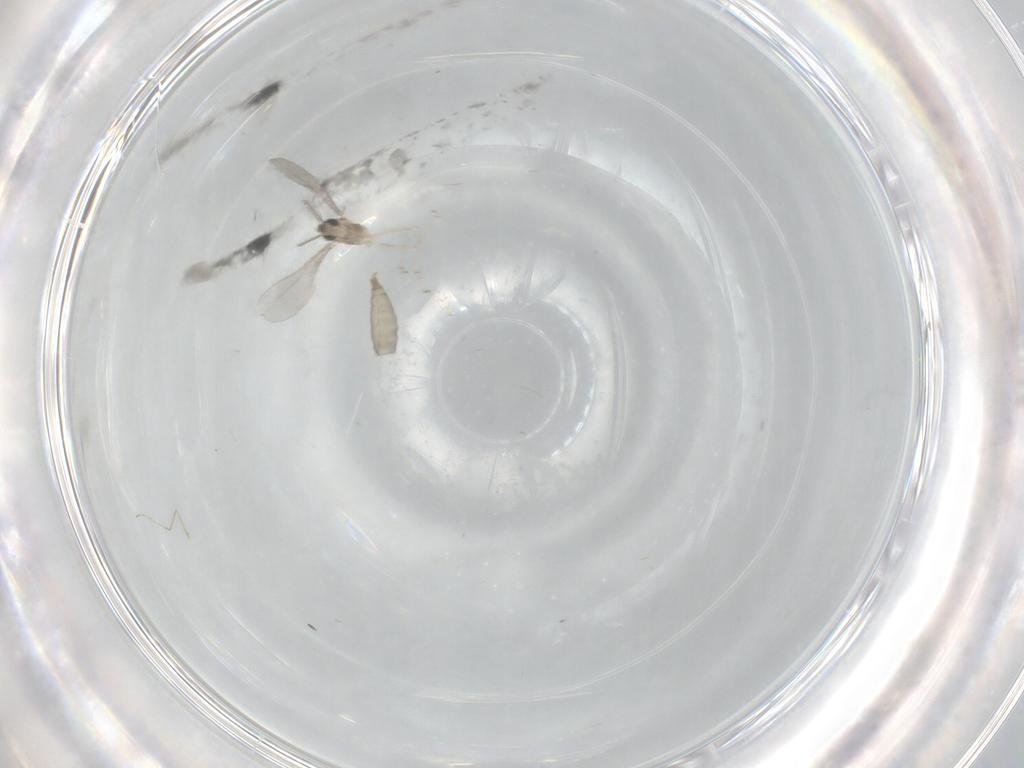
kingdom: Animalia
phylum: Arthropoda
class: Insecta
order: Diptera
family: Cecidomyiidae
